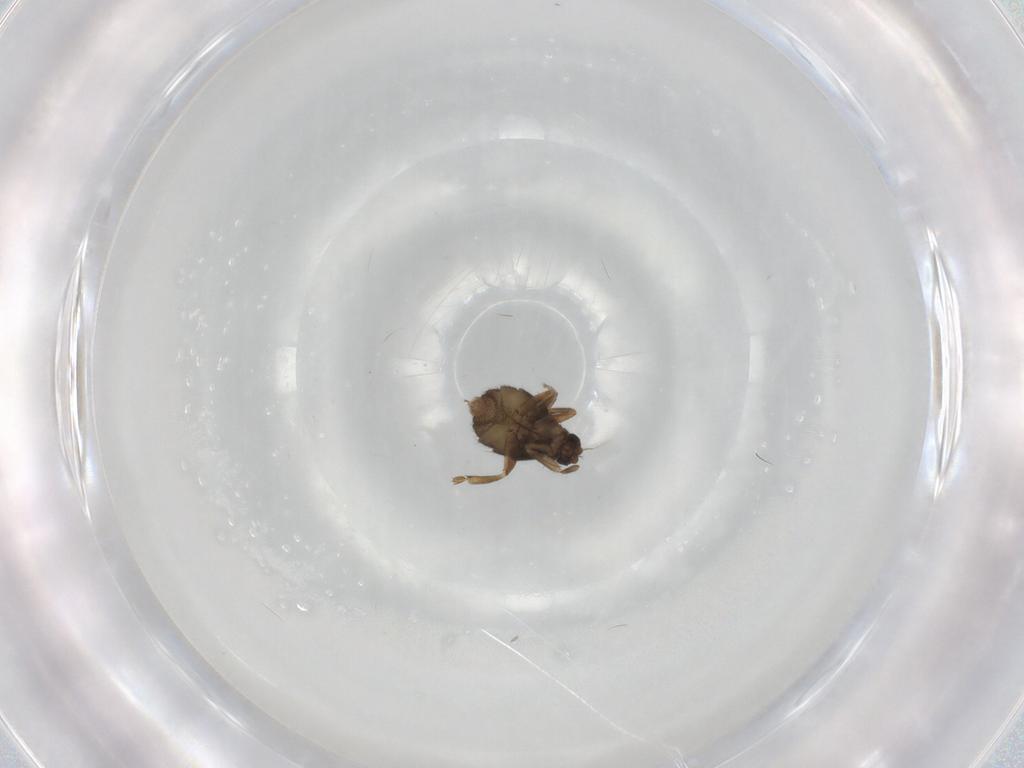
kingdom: Animalia
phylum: Arthropoda
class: Insecta
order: Diptera
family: Phoridae
